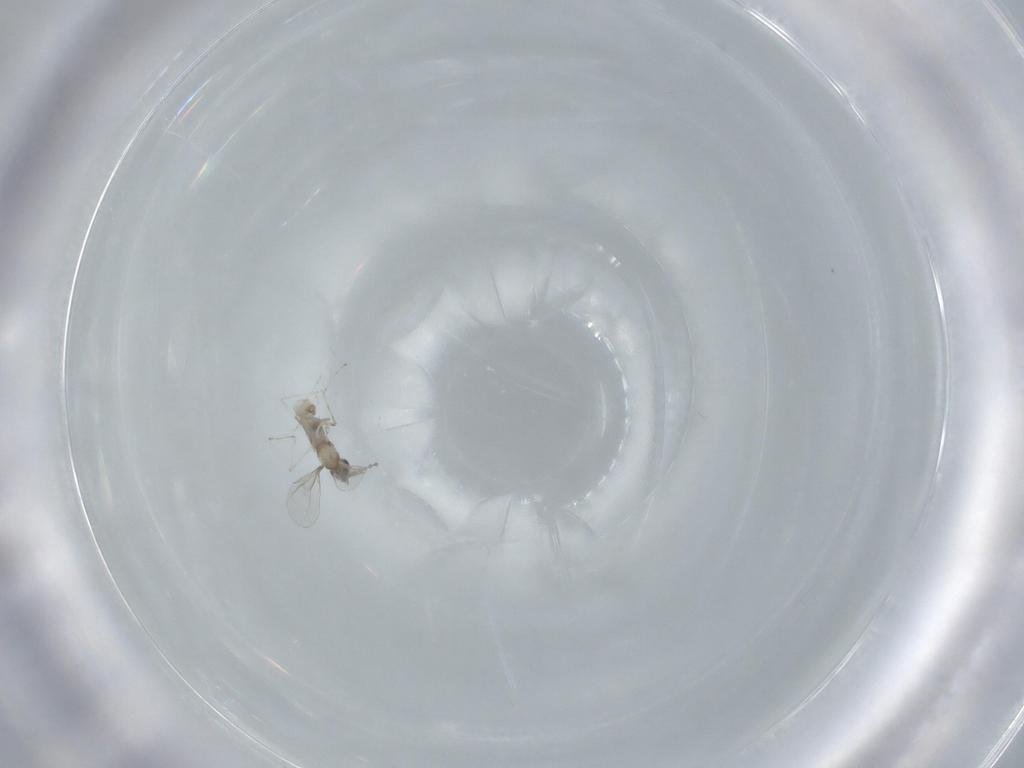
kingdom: Animalia
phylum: Arthropoda
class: Insecta
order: Diptera
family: Cecidomyiidae
